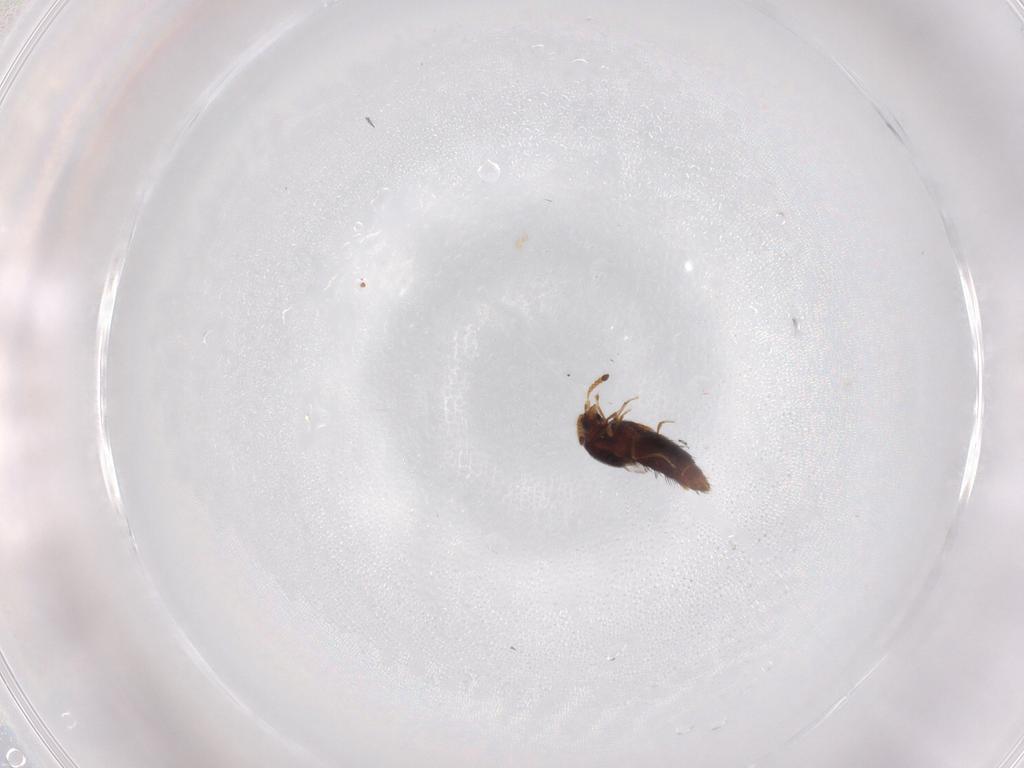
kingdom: Animalia
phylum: Arthropoda
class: Insecta
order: Coleoptera
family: Staphylinidae
